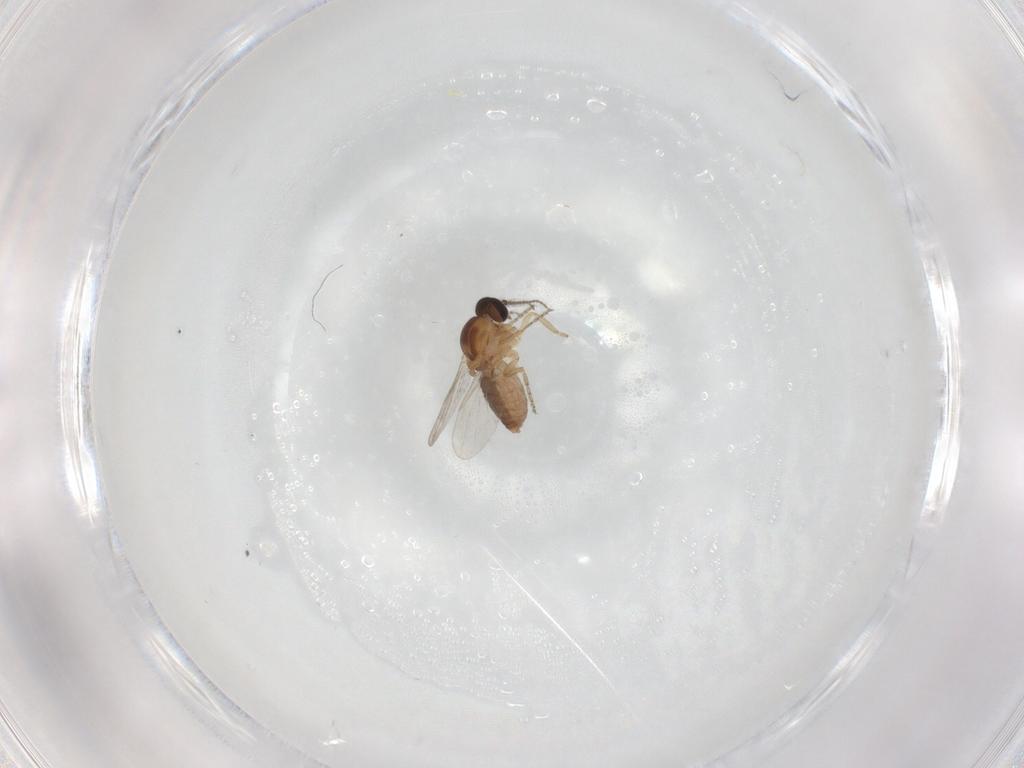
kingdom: Animalia
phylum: Arthropoda
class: Insecta
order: Diptera
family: Ceratopogonidae
